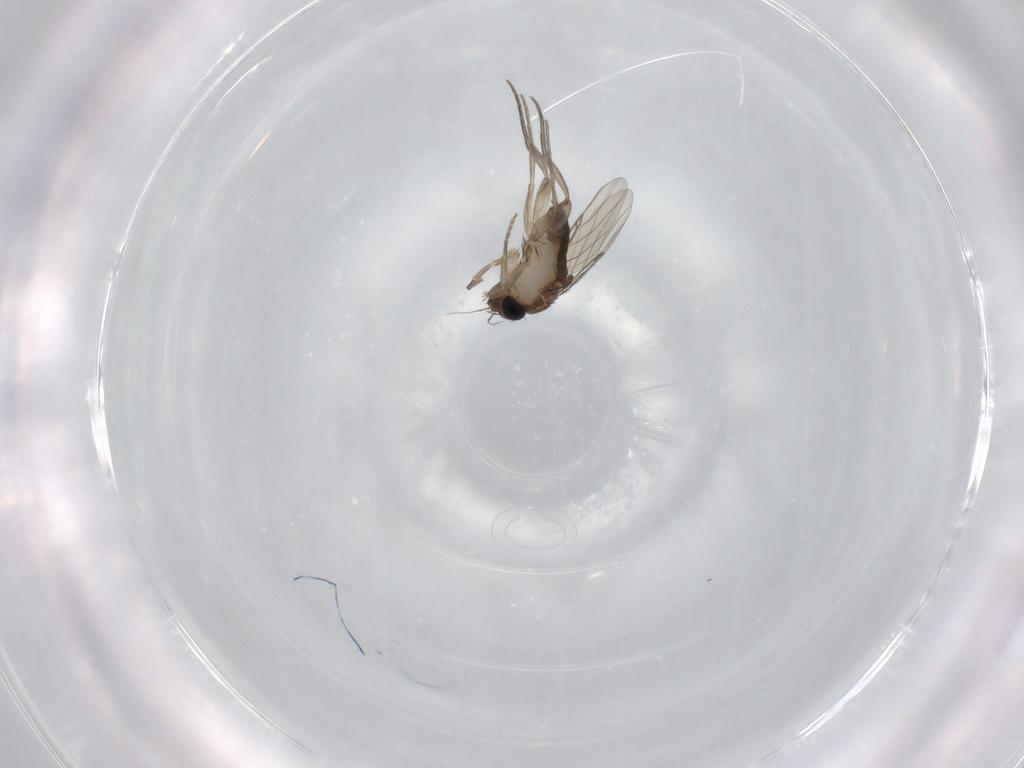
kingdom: Animalia
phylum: Arthropoda
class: Insecta
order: Diptera
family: Phoridae
